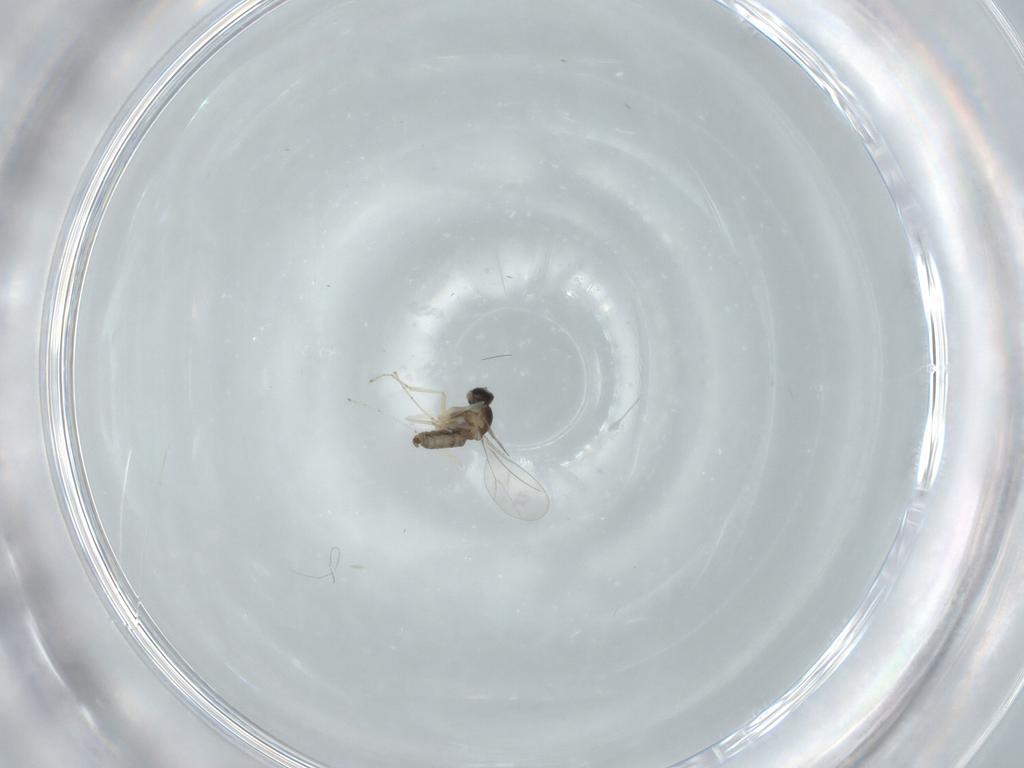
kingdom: Animalia
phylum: Arthropoda
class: Insecta
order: Diptera
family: Cecidomyiidae
